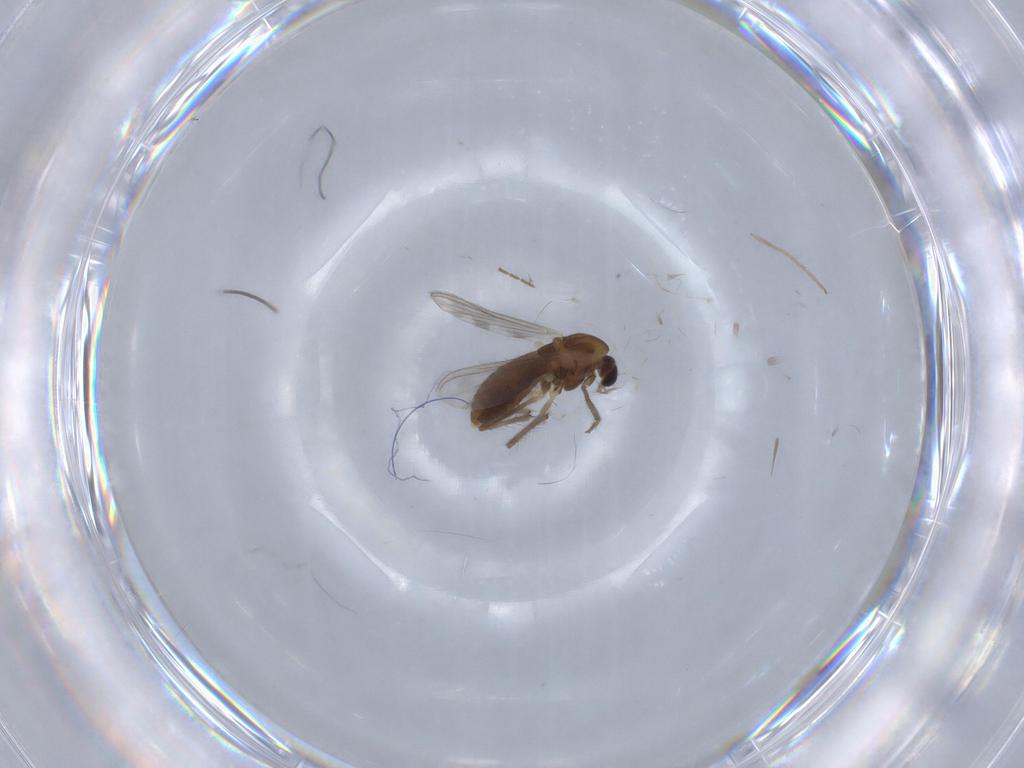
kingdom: Animalia
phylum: Arthropoda
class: Insecta
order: Diptera
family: Chironomidae
